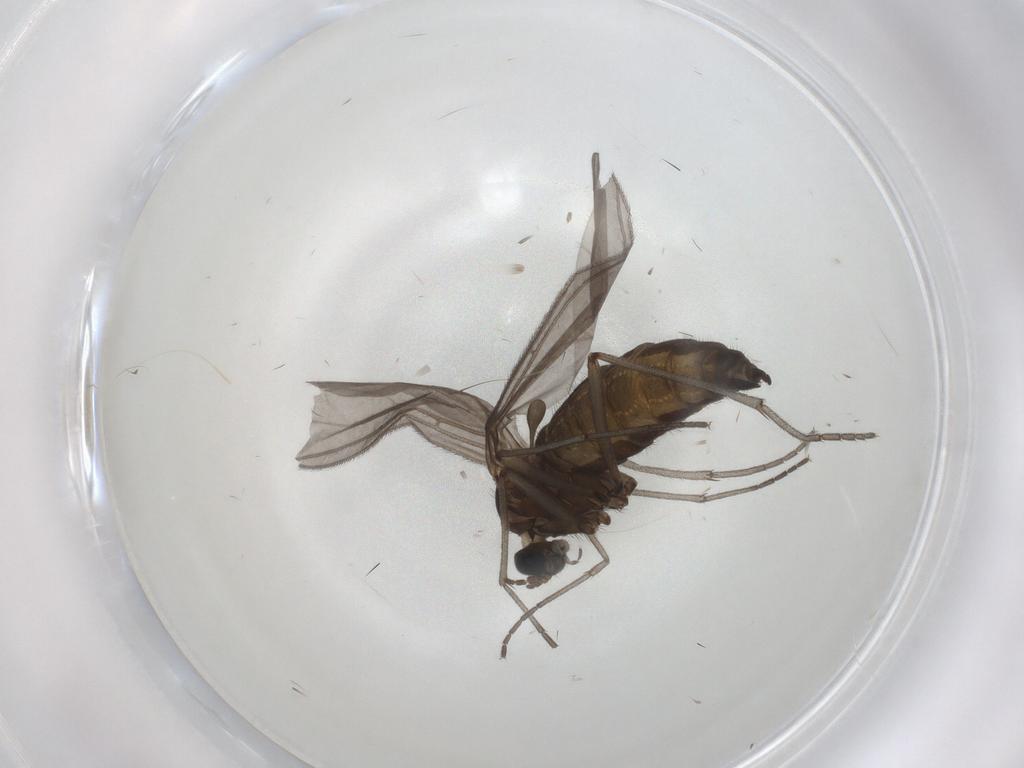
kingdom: Animalia
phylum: Arthropoda
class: Insecta
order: Diptera
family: Sciaridae
